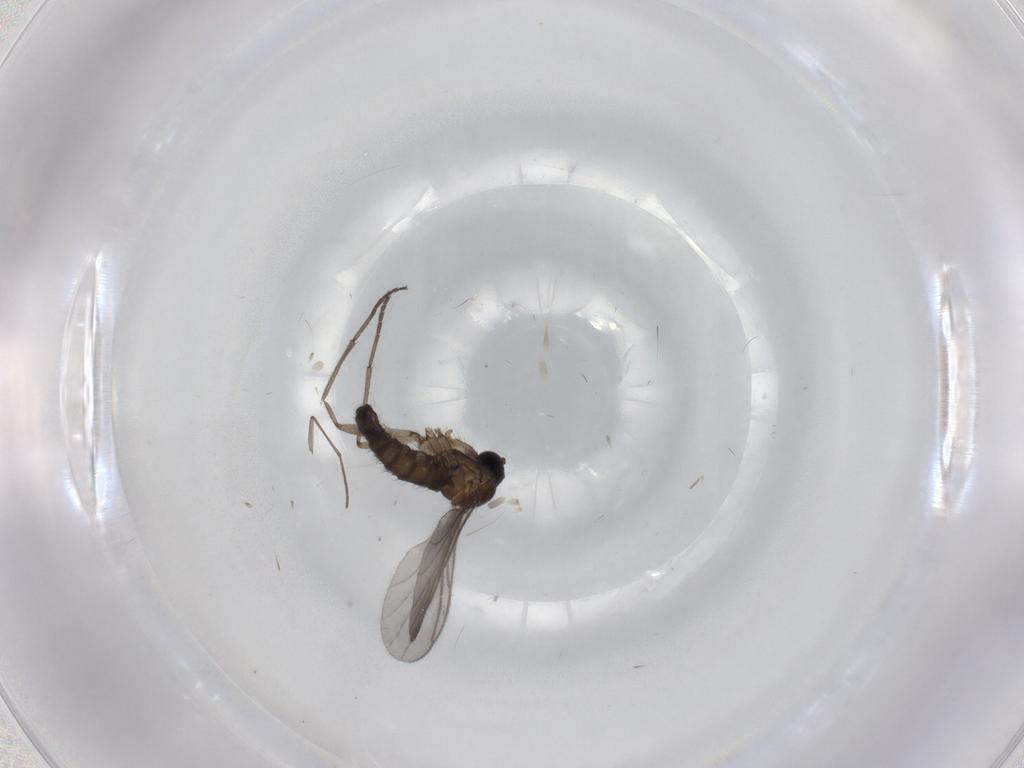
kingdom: Animalia
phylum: Arthropoda
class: Insecta
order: Diptera
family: Sciaridae
